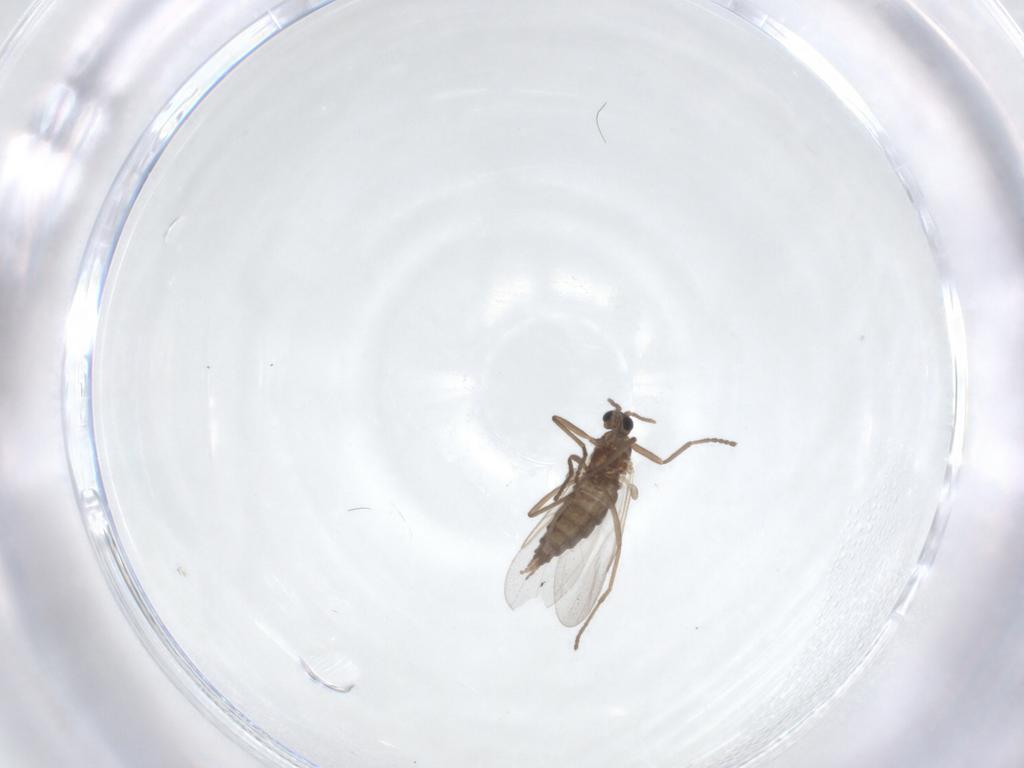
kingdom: Animalia
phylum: Arthropoda
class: Insecta
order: Diptera
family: Cecidomyiidae
